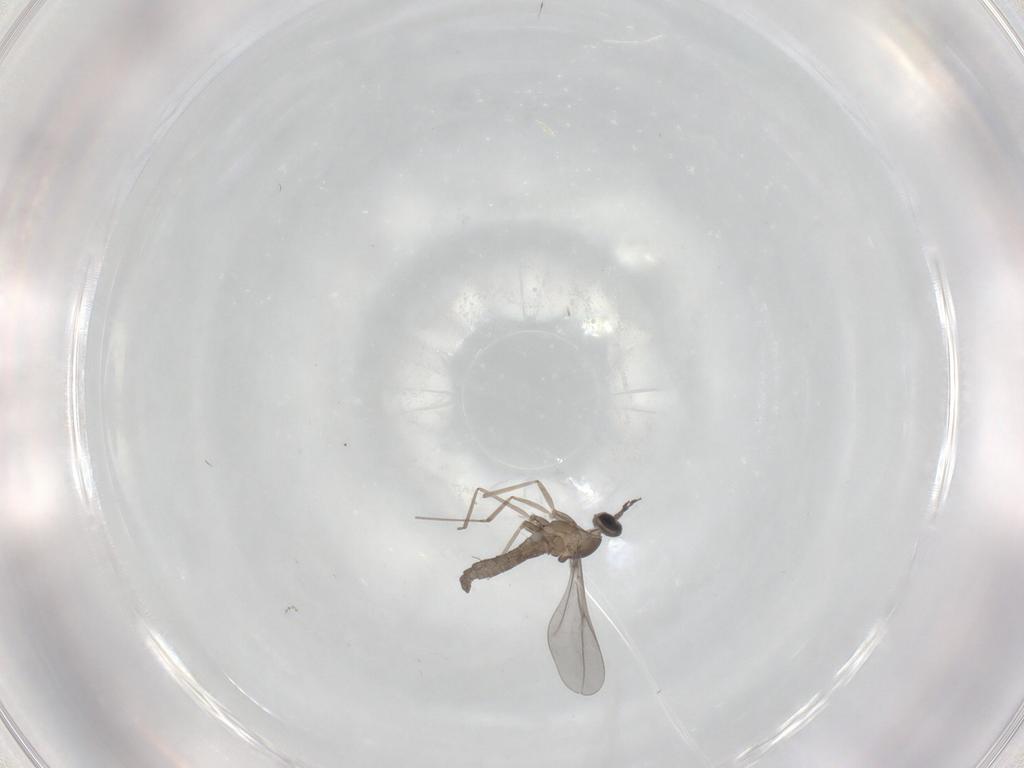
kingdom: Animalia
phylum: Arthropoda
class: Insecta
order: Diptera
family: Cecidomyiidae
